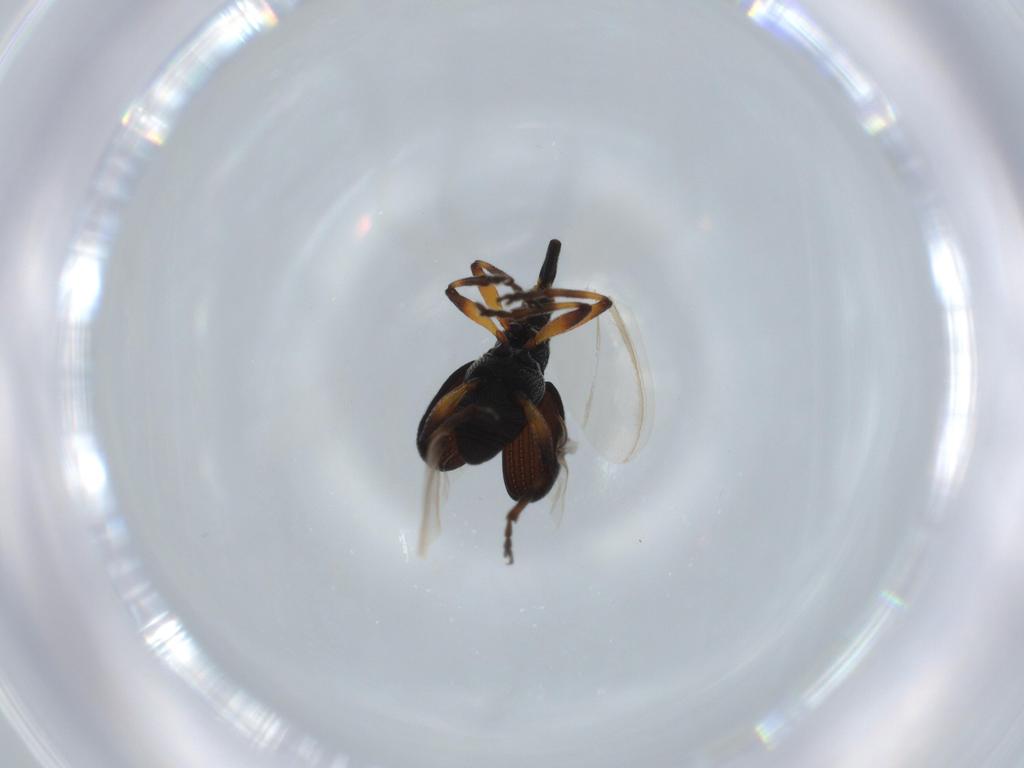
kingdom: Animalia
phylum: Arthropoda
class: Insecta
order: Coleoptera
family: Brentidae
